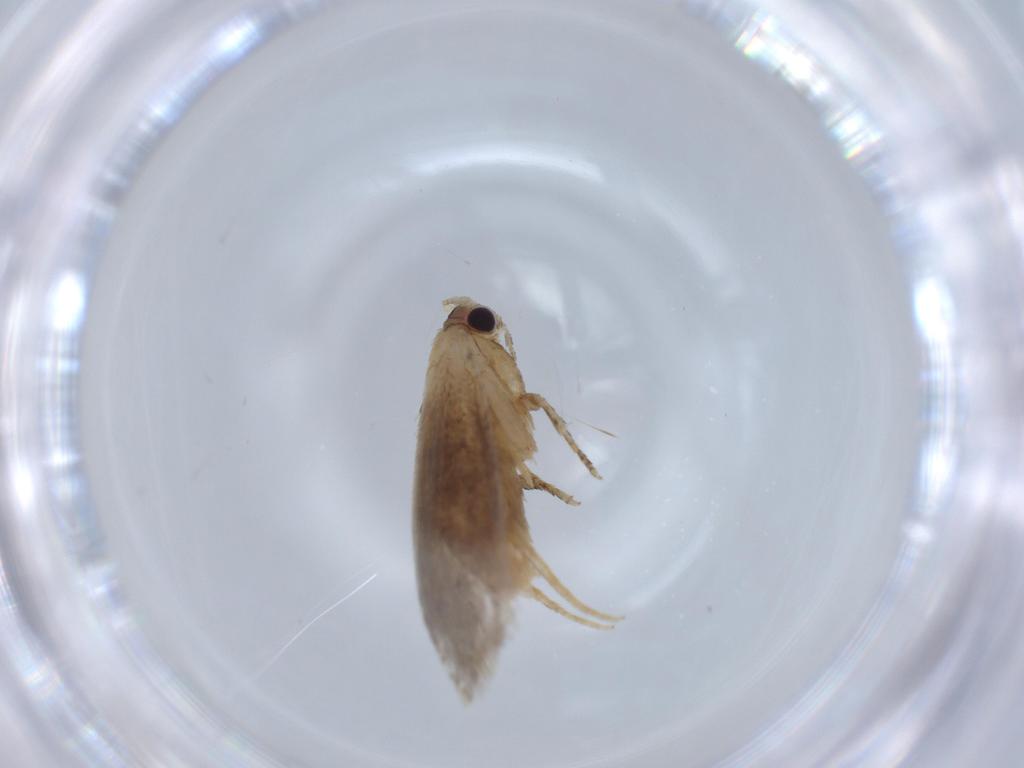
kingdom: Animalia
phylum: Arthropoda
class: Insecta
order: Lepidoptera
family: Tineidae
